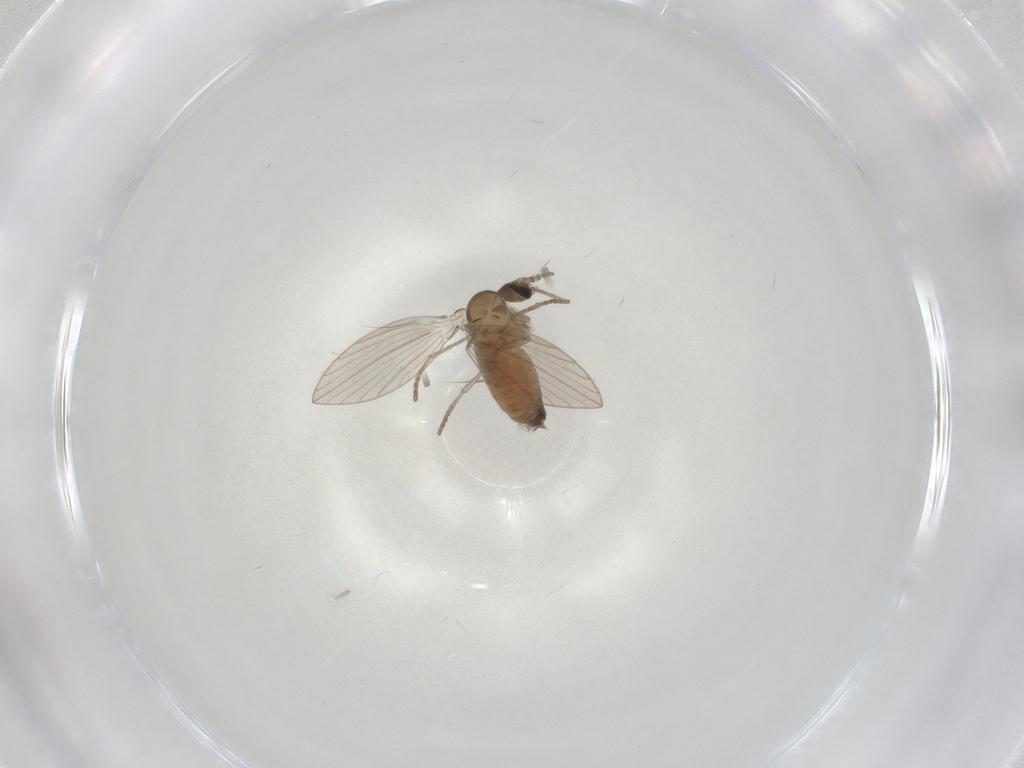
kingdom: Animalia
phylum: Arthropoda
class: Insecta
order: Diptera
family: Psychodidae
